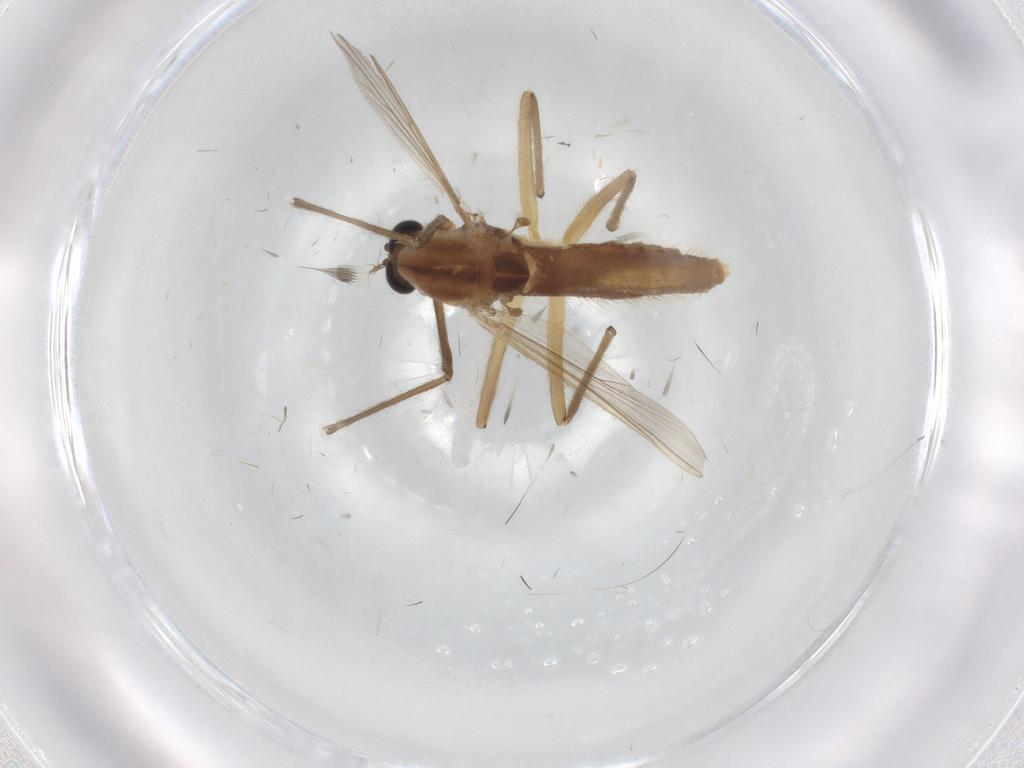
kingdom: Animalia
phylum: Arthropoda
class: Insecta
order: Diptera
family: Chironomidae
